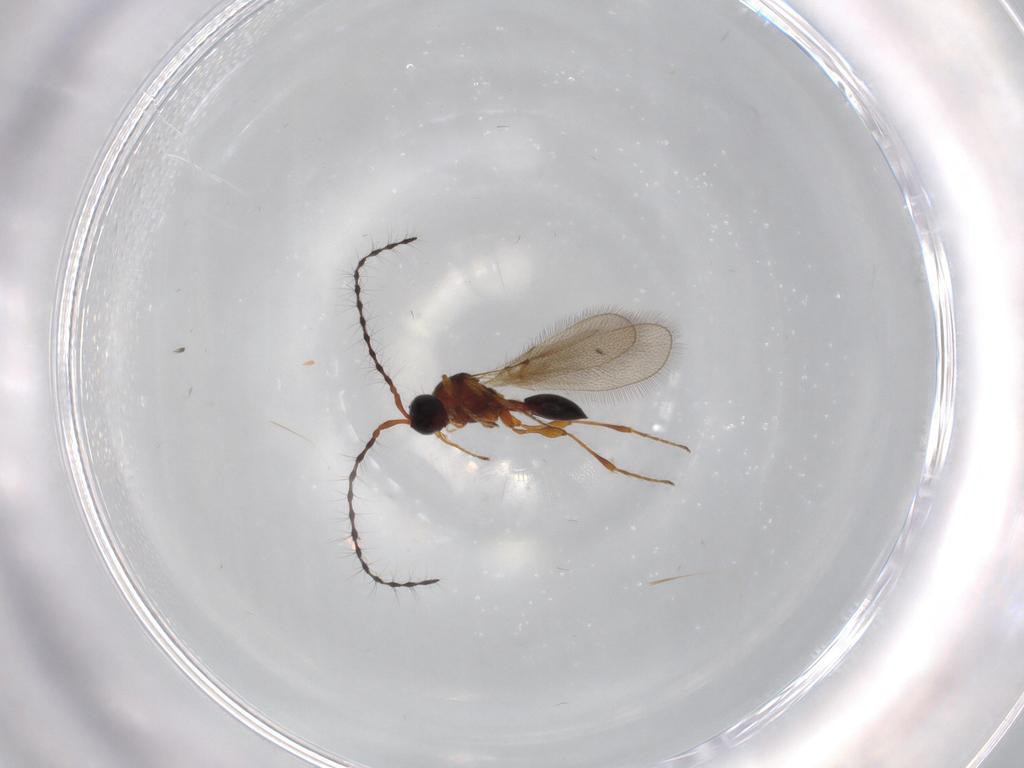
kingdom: Animalia
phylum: Arthropoda
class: Insecta
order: Hymenoptera
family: Diapriidae
